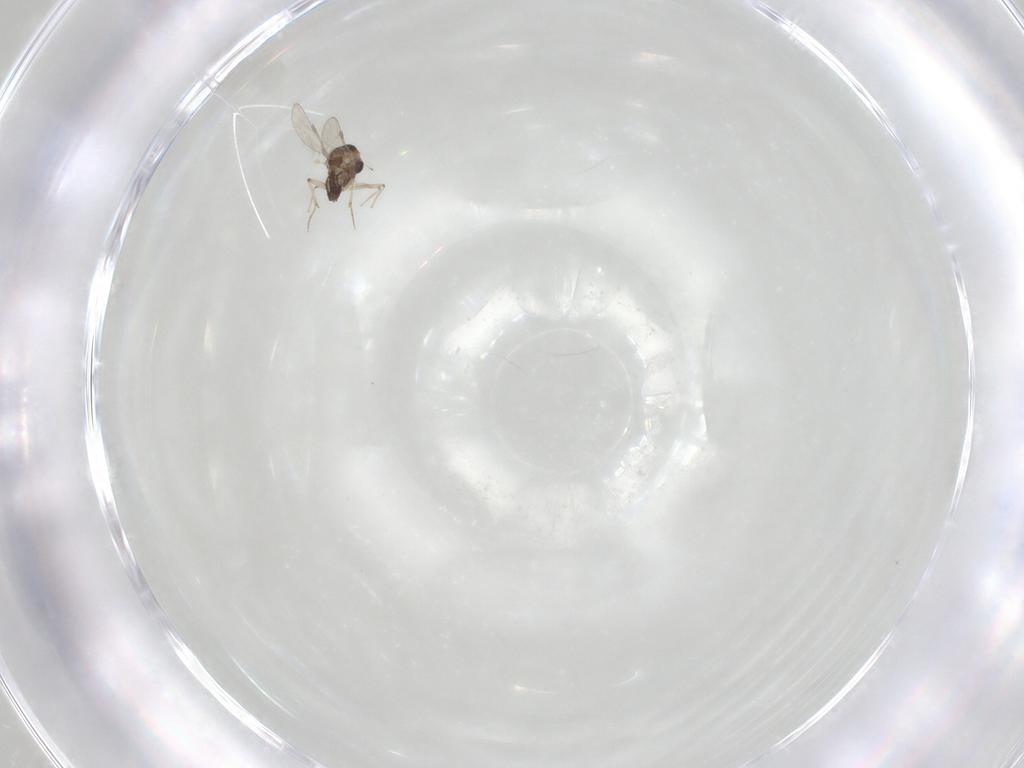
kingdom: Animalia
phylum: Arthropoda
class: Insecta
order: Diptera
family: Chironomidae
